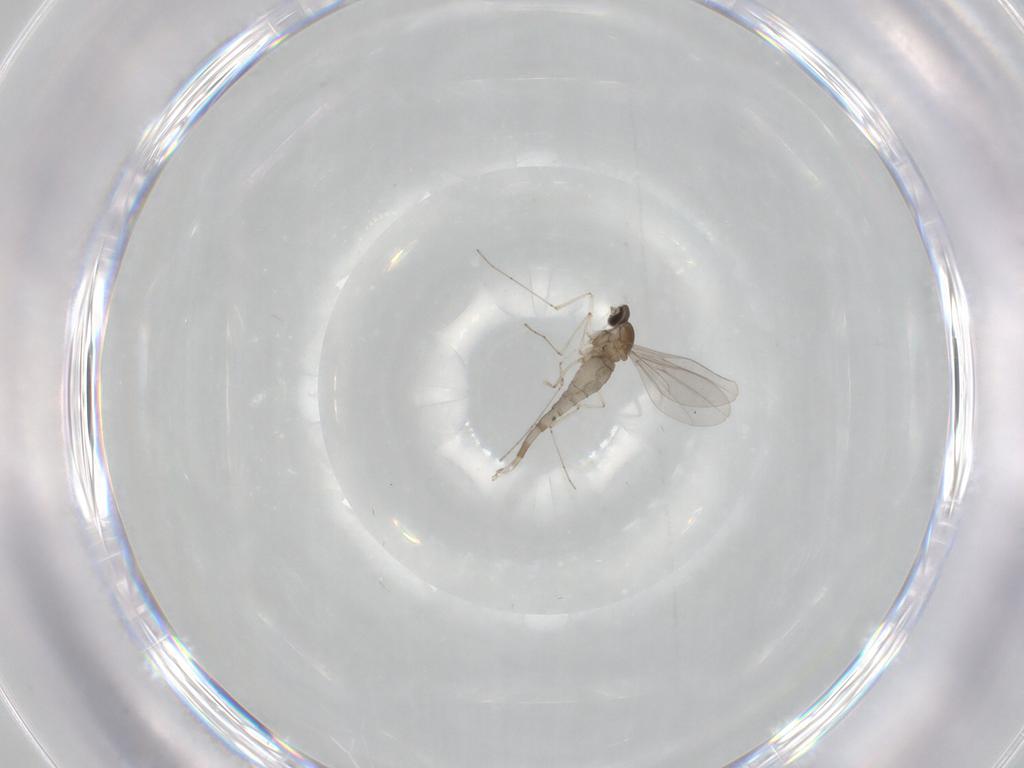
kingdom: Animalia
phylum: Arthropoda
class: Insecta
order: Diptera
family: Cecidomyiidae
